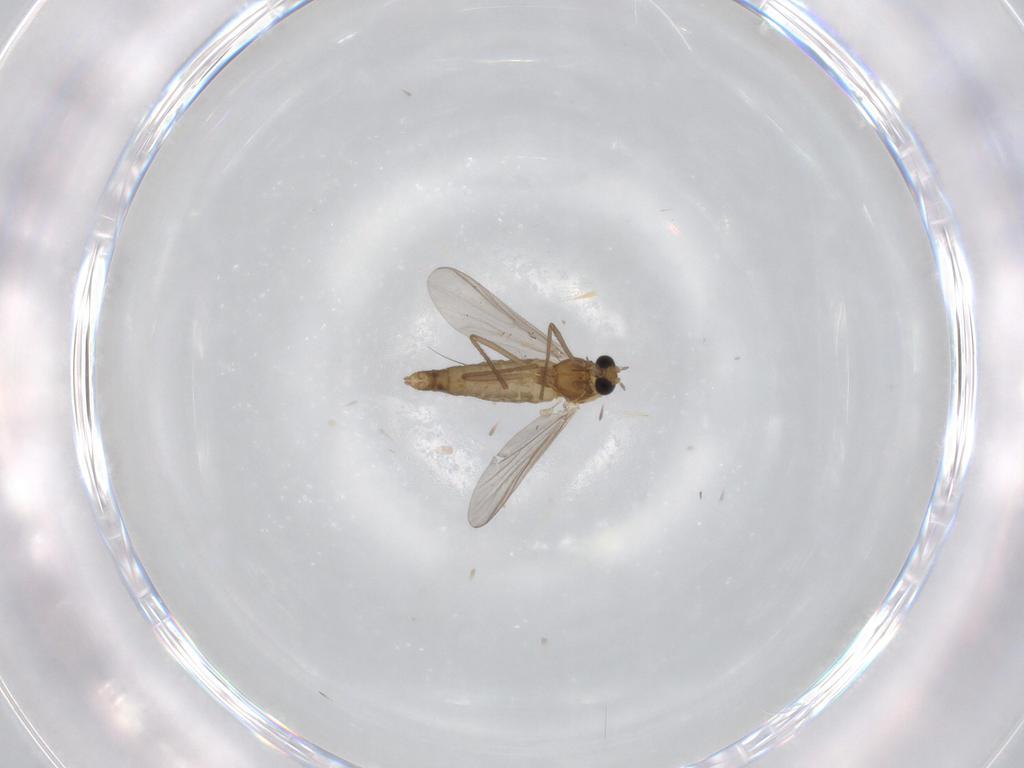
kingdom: Animalia
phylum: Arthropoda
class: Insecta
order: Diptera
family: Chironomidae
